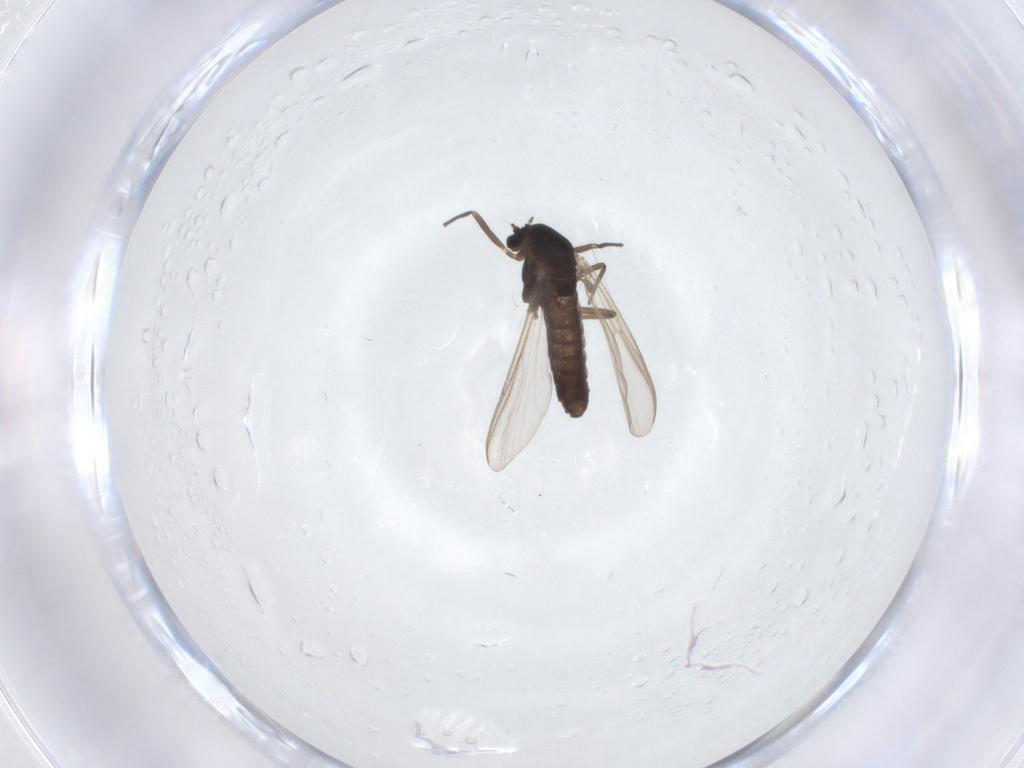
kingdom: Animalia
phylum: Arthropoda
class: Insecta
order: Diptera
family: Chironomidae
